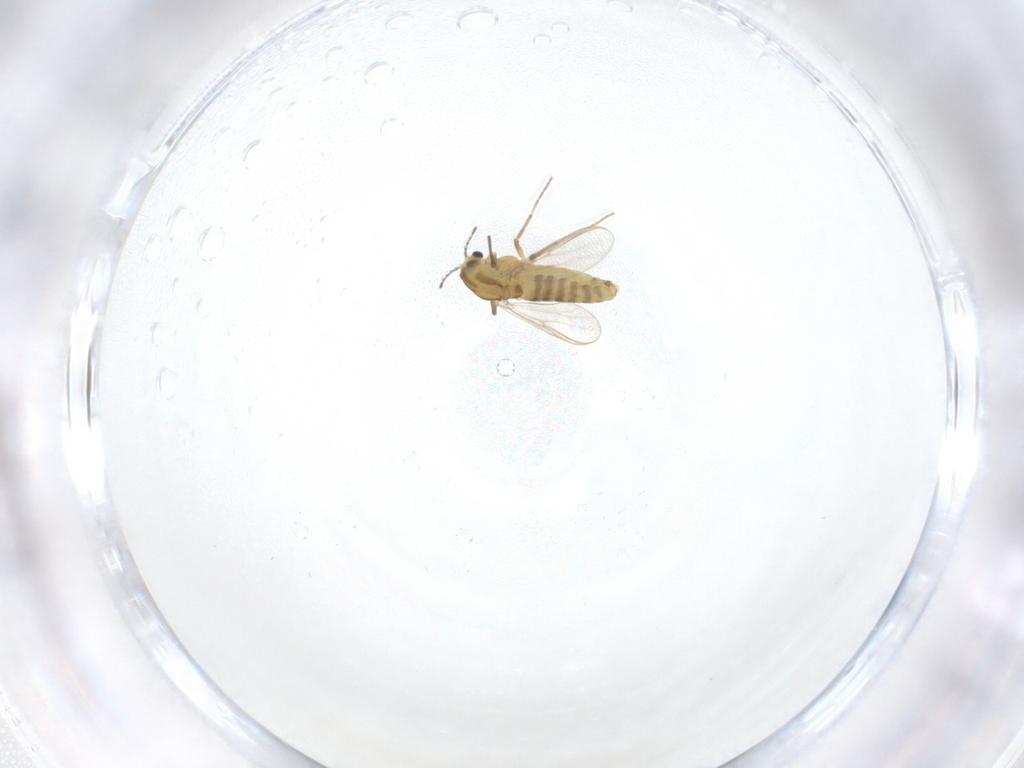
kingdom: Animalia
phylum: Arthropoda
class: Insecta
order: Diptera
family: Chironomidae
